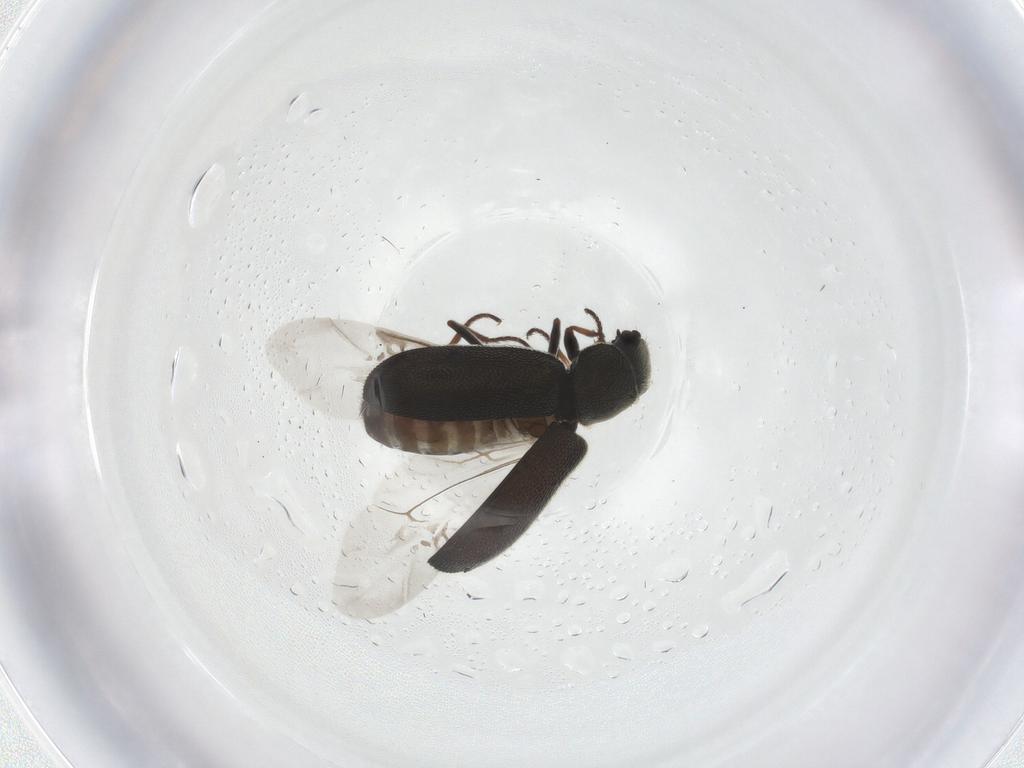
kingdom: Animalia
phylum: Arthropoda
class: Insecta
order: Coleoptera
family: Melyridae
